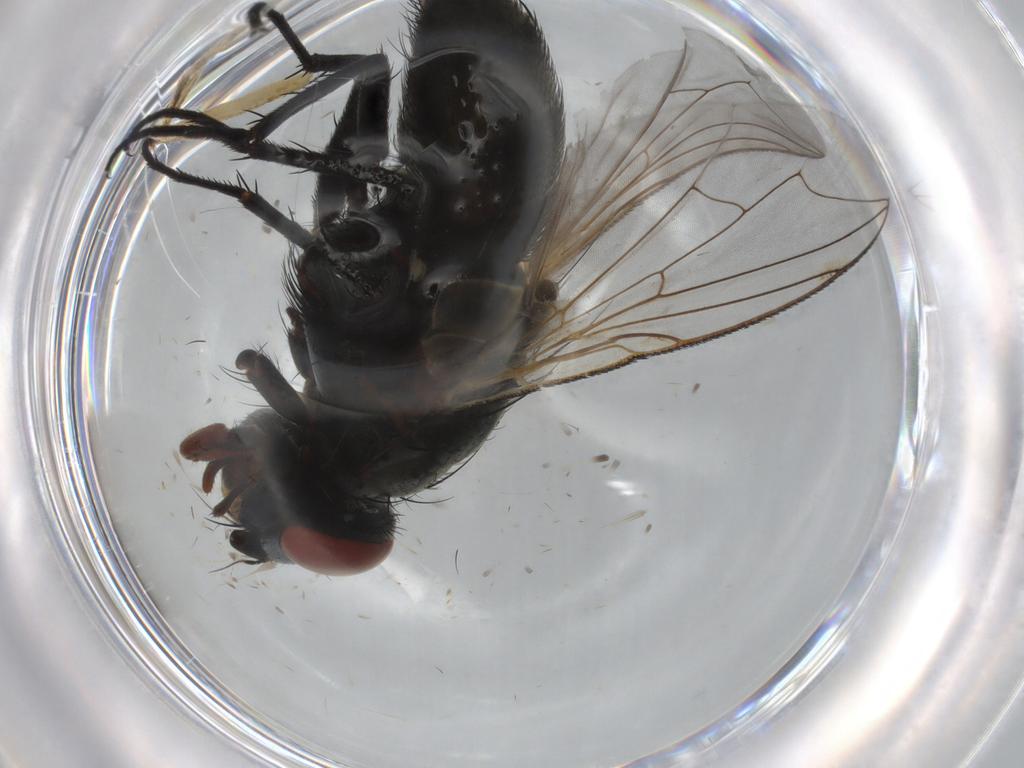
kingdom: Animalia
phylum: Arthropoda
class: Insecta
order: Diptera
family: Sarcophagidae
